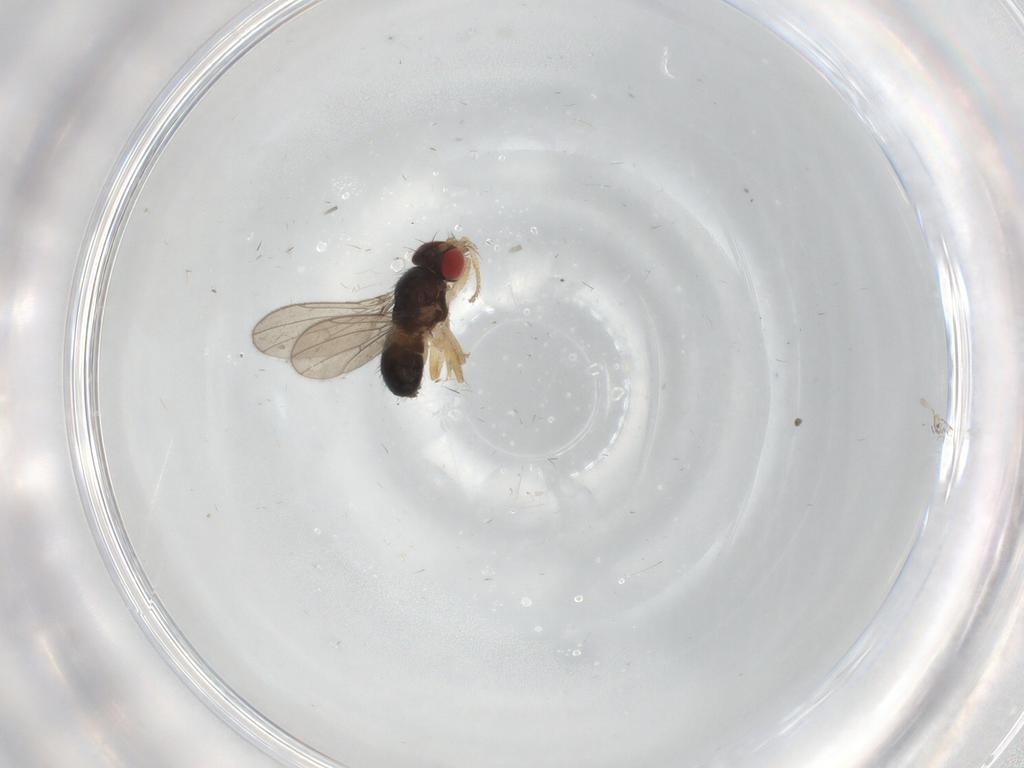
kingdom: Animalia
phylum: Arthropoda
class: Insecta
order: Diptera
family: Drosophilidae
